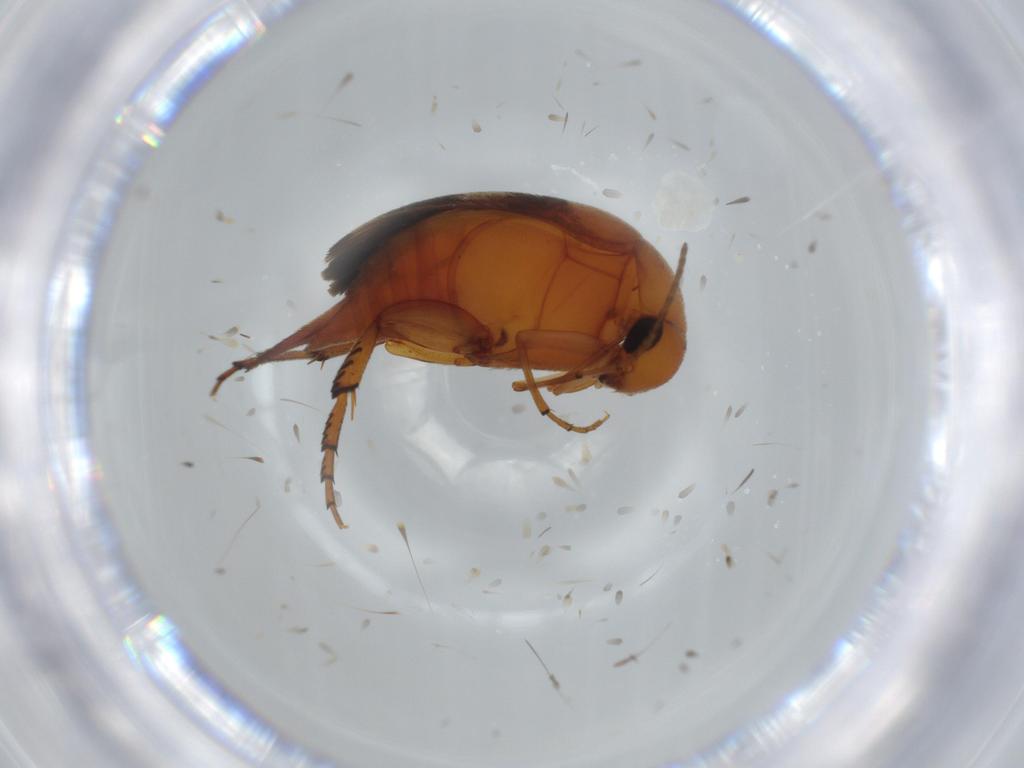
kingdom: Animalia
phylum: Arthropoda
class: Insecta
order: Coleoptera
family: Mordellidae
